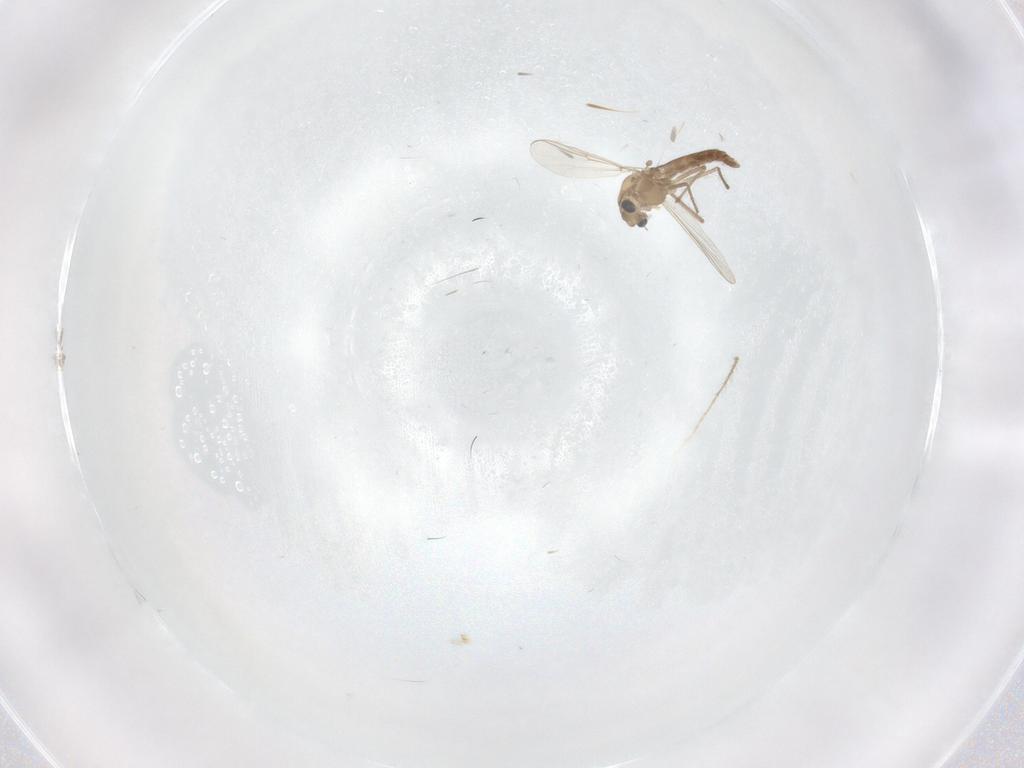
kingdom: Animalia
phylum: Arthropoda
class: Insecta
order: Diptera
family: Chironomidae
